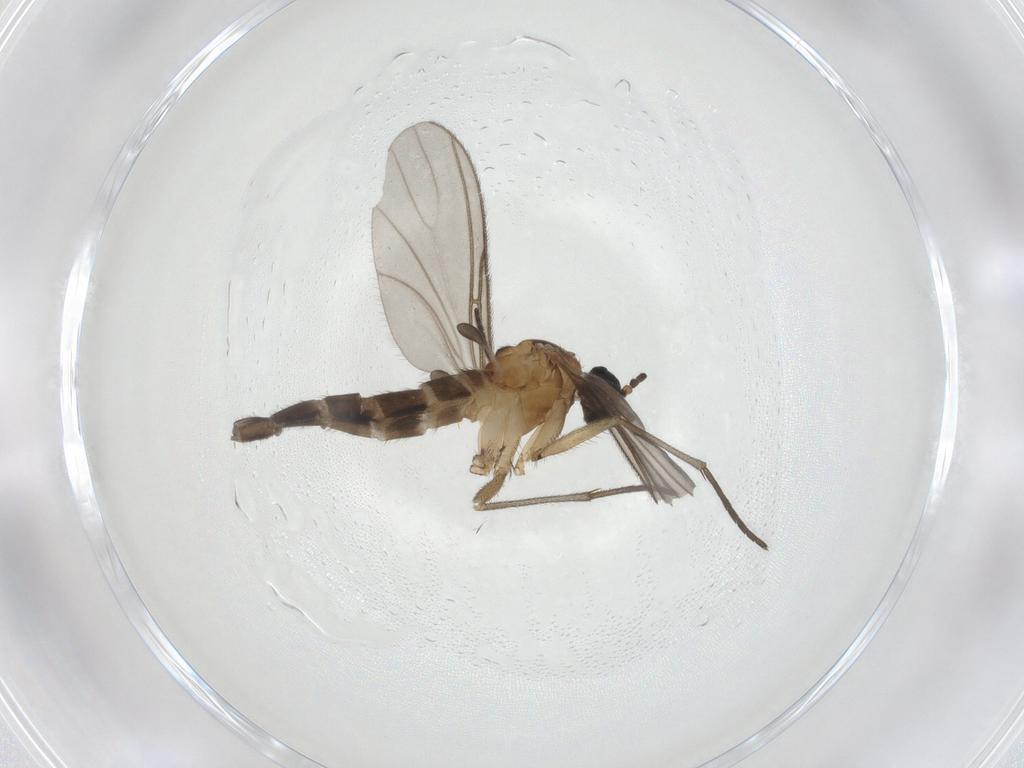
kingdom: Animalia
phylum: Arthropoda
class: Insecta
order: Diptera
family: Sciaridae
